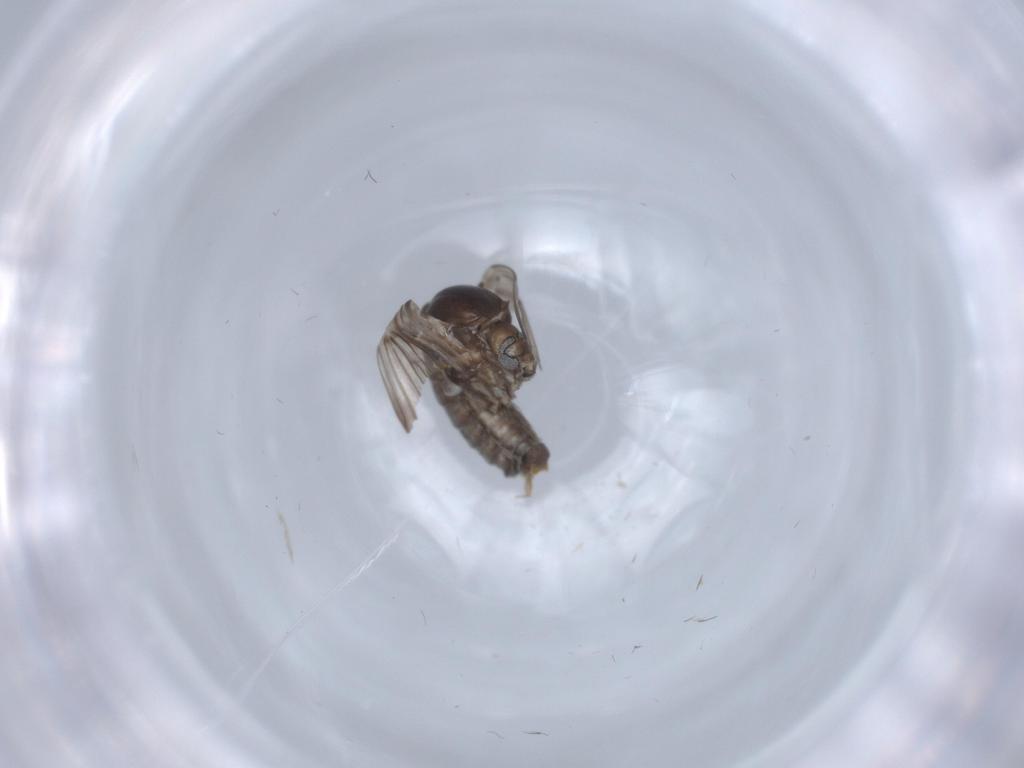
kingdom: Animalia
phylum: Arthropoda
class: Insecta
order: Diptera
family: Psychodidae
